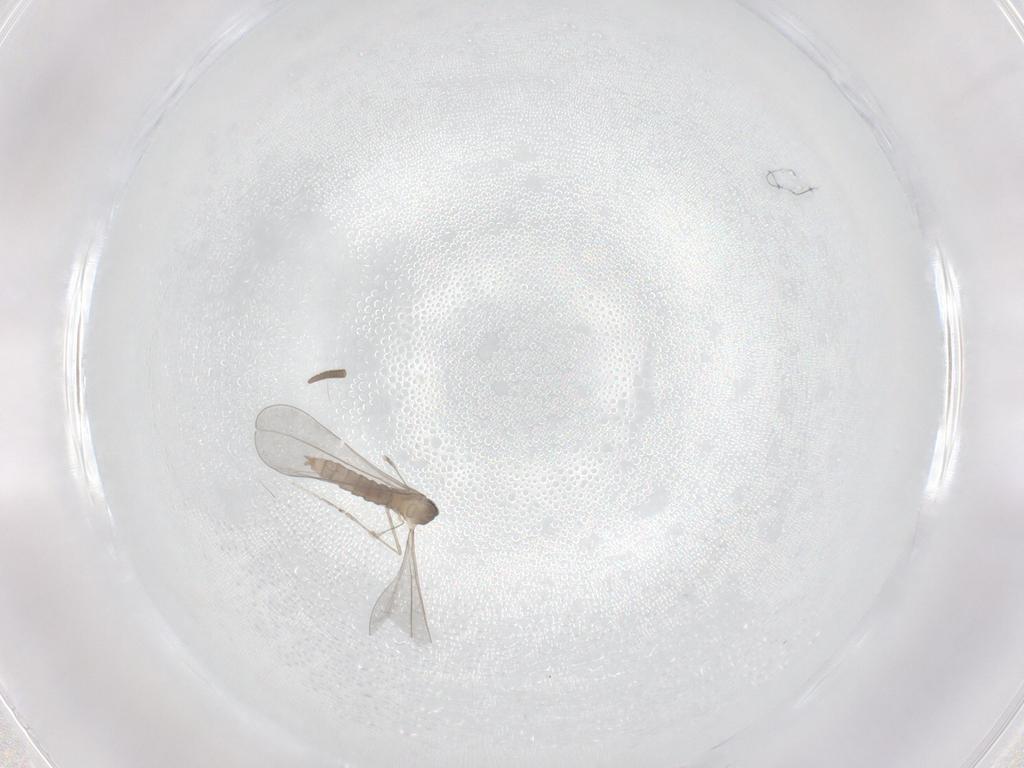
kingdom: Animalia
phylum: Arthropoda
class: Insecta
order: Diptera
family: Cecidomyiidae
